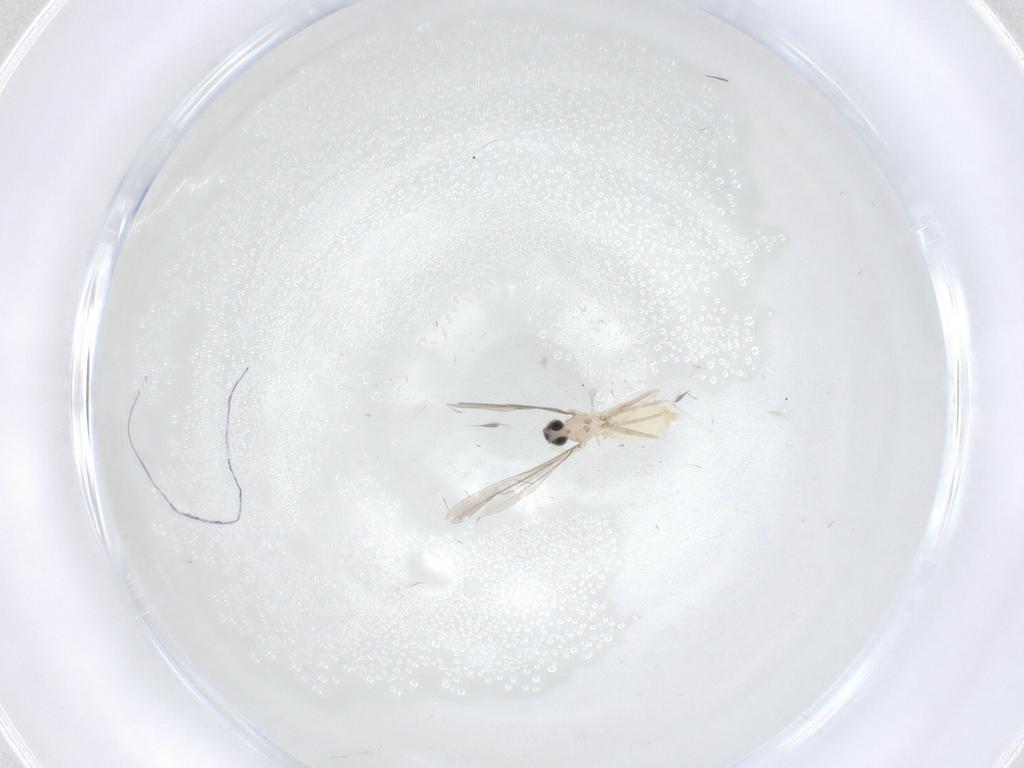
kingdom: Animalia
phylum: Arthropoda
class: Insecta
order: Diptera
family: Cecidomyiidae
